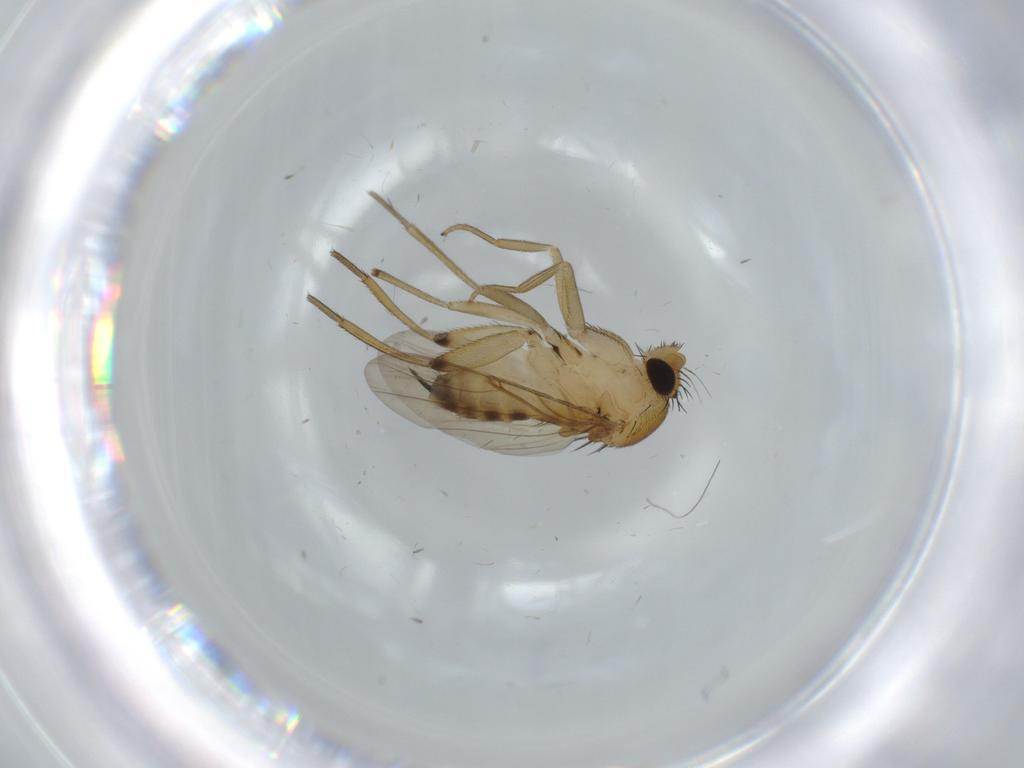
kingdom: Animalia
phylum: Arthropoda
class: Insecta
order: Diptera
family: Phoridae
